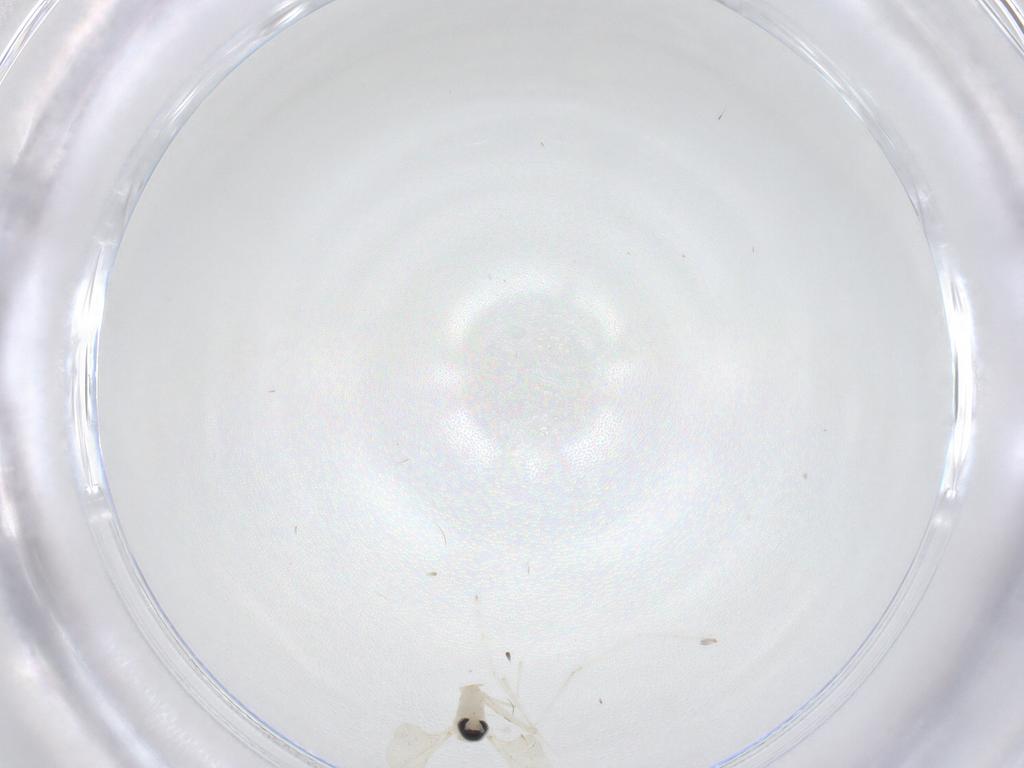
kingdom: Animalia
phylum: Arthropoda
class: Insecta
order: Diptera
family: Cecidomyiidae
